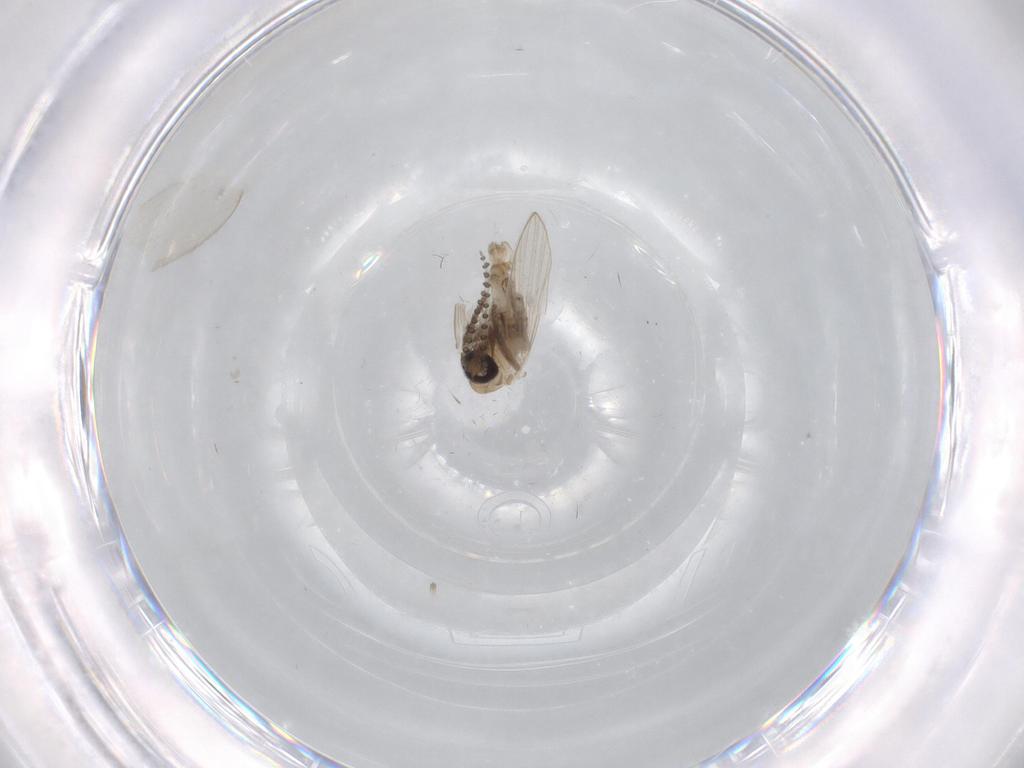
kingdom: Animalia
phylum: Arthropoda
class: Insecta
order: Diptera
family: Psychodidae
